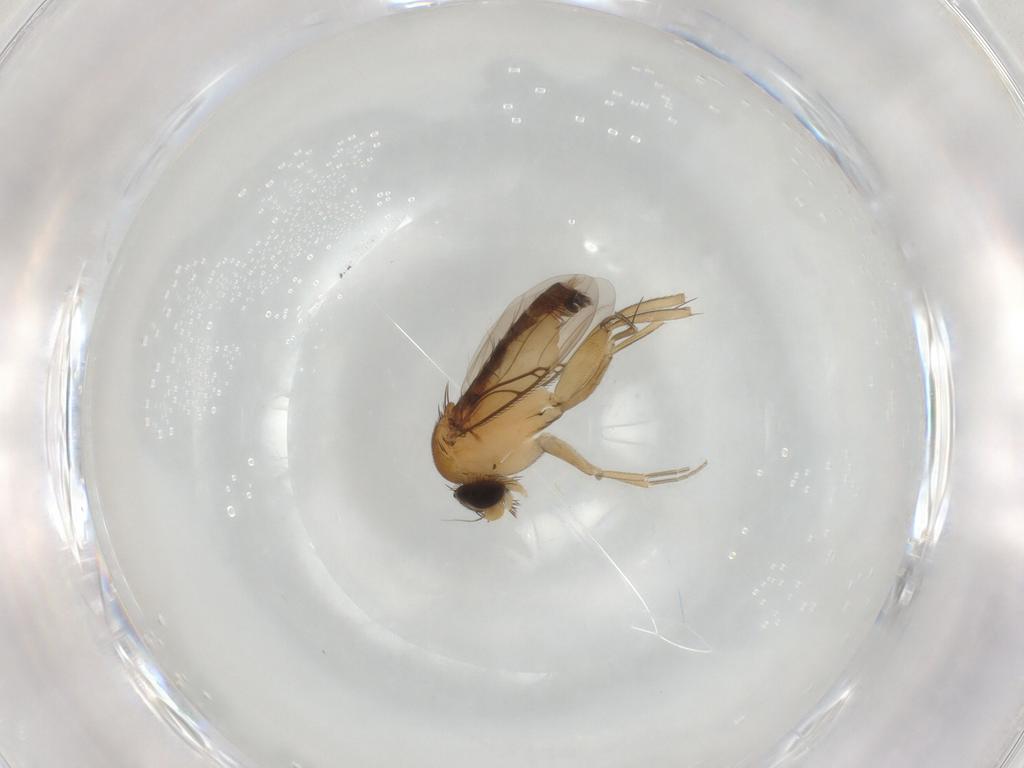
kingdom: Animalia
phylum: Arthropoda
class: Insecta
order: Diptera
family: Phoridae
